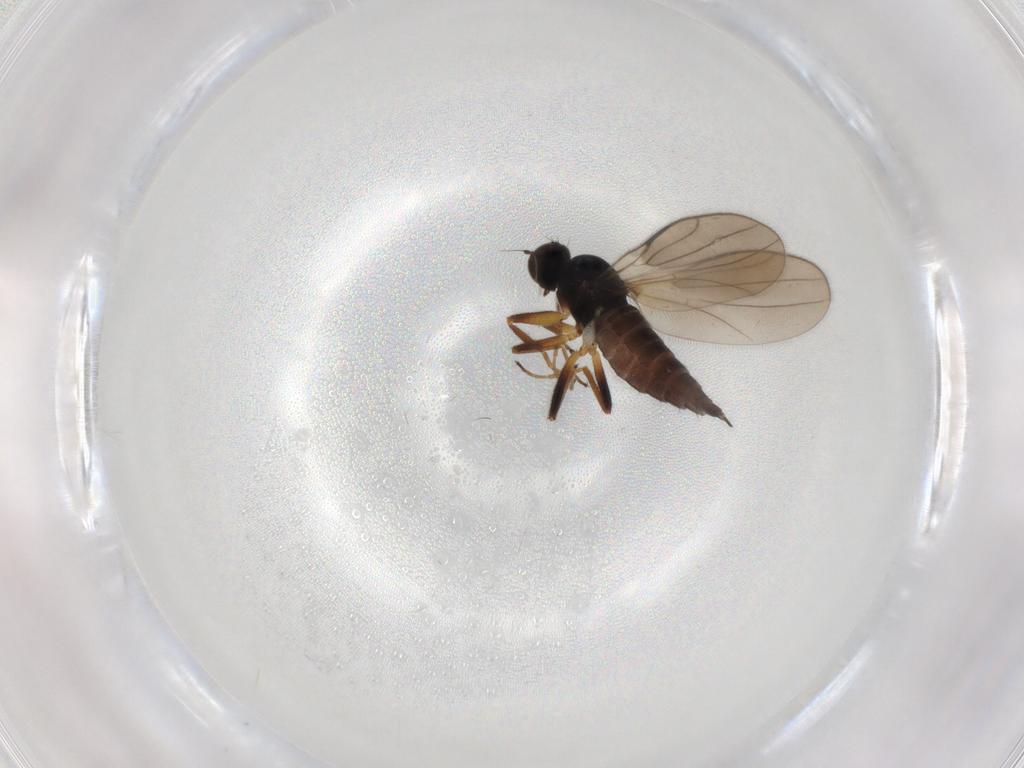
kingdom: Animalia
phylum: Arthropoda
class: Insecta
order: Diptera
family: Hybotidae
